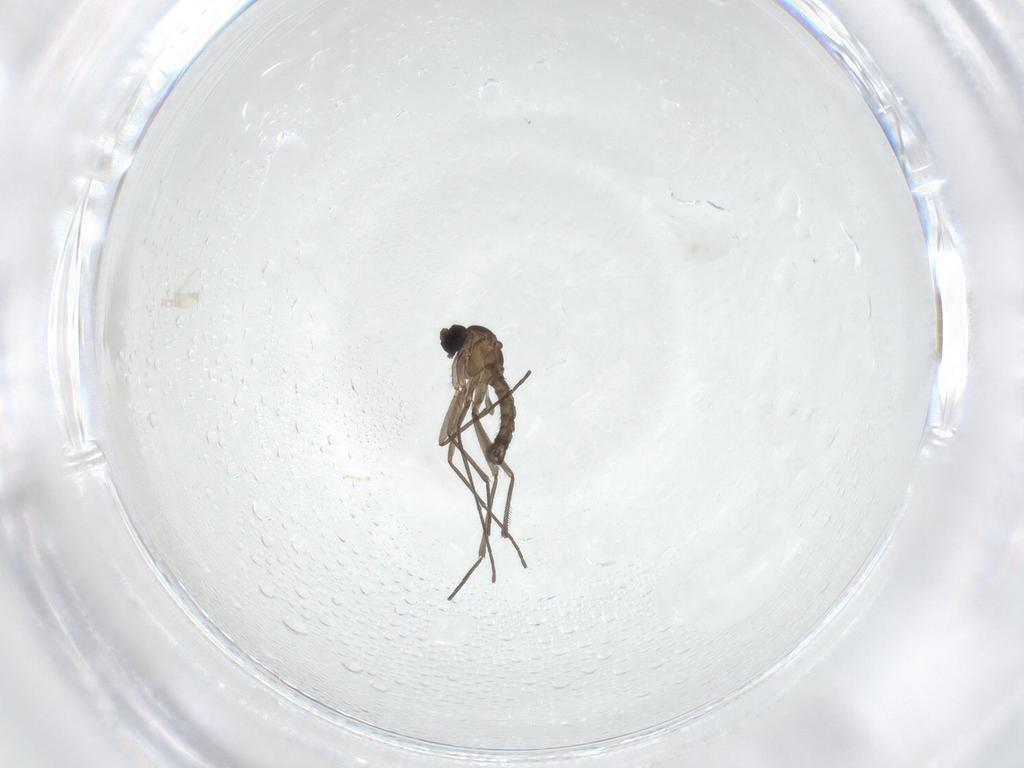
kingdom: Animalia
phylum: Arthropoda
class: Insecta
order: Diptera
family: Sciaridae
